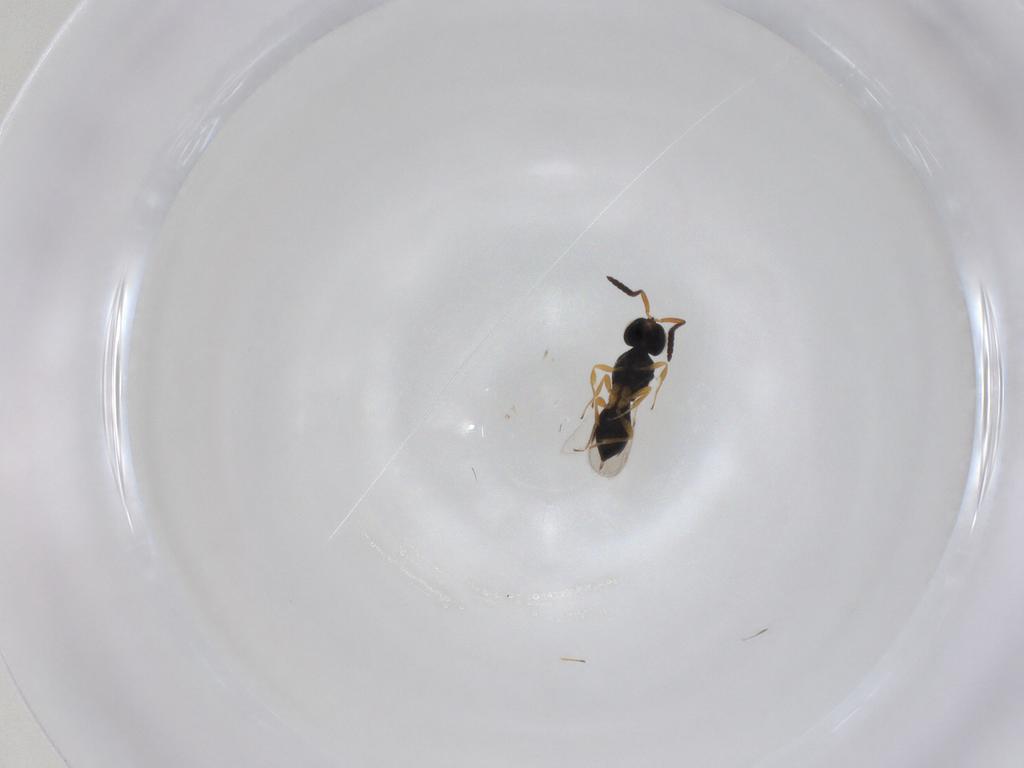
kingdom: Animalia
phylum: Arthropoda
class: Insecta
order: Hymenoptera
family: Scelionidae
